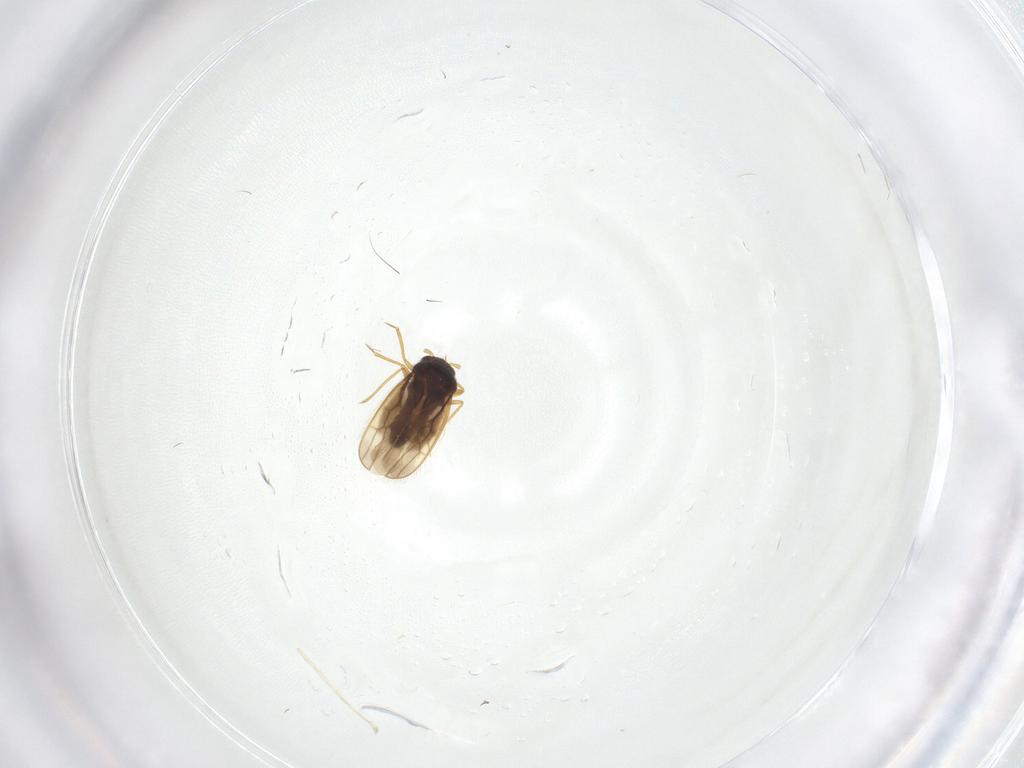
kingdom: Animalia
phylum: Arthropoda
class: Insecta
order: Hemiptera
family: Schizopteridae
